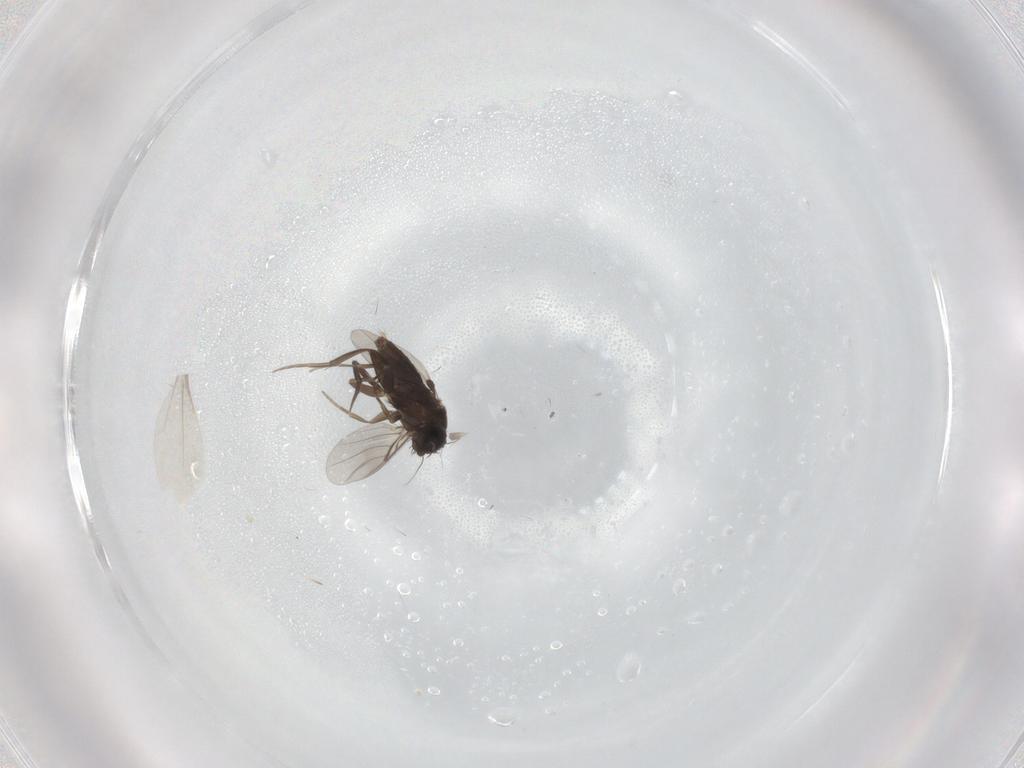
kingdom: Animalia
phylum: Arthropoda
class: Insecta
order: Diptera
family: Phoridae
